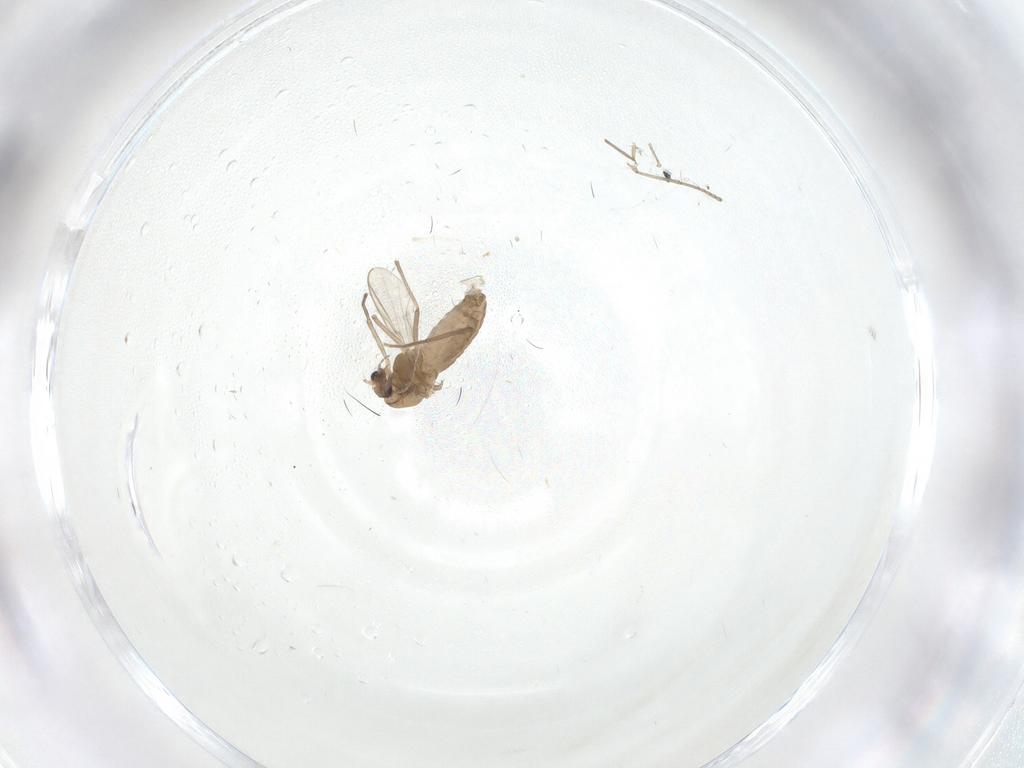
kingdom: Animalia
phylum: Arthropoda
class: Insecta
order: Diptera
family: Chironomidae
